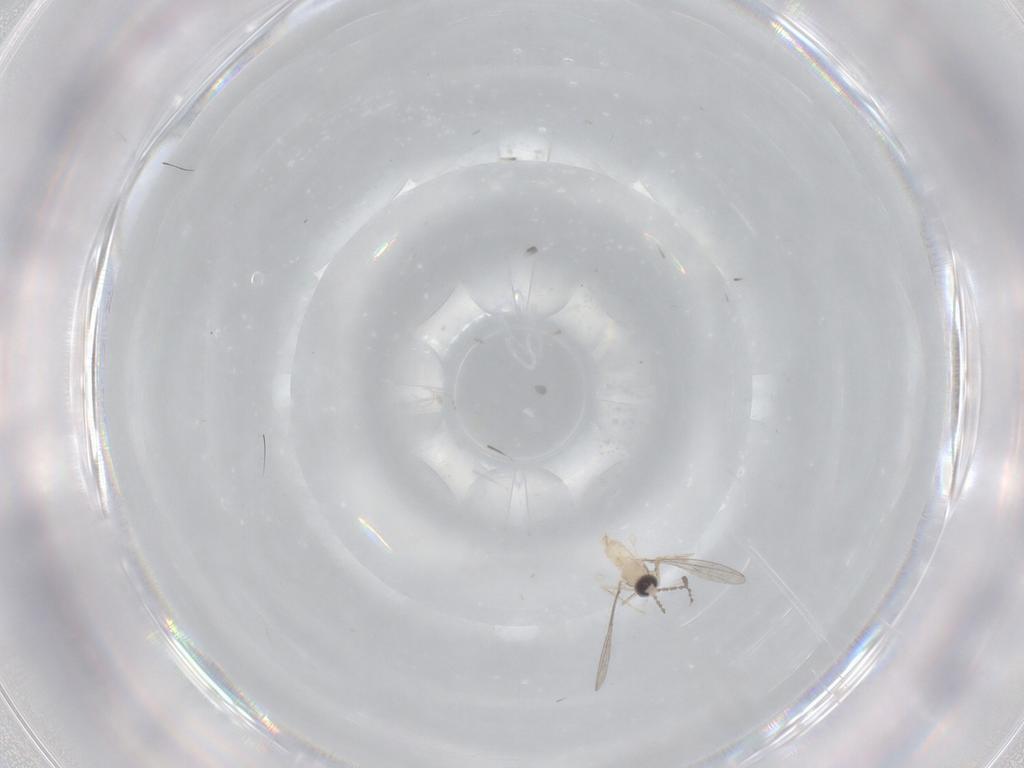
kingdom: Animalia
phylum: Arthropoda
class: Insecta
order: Diptera
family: Cecidomyiidae
